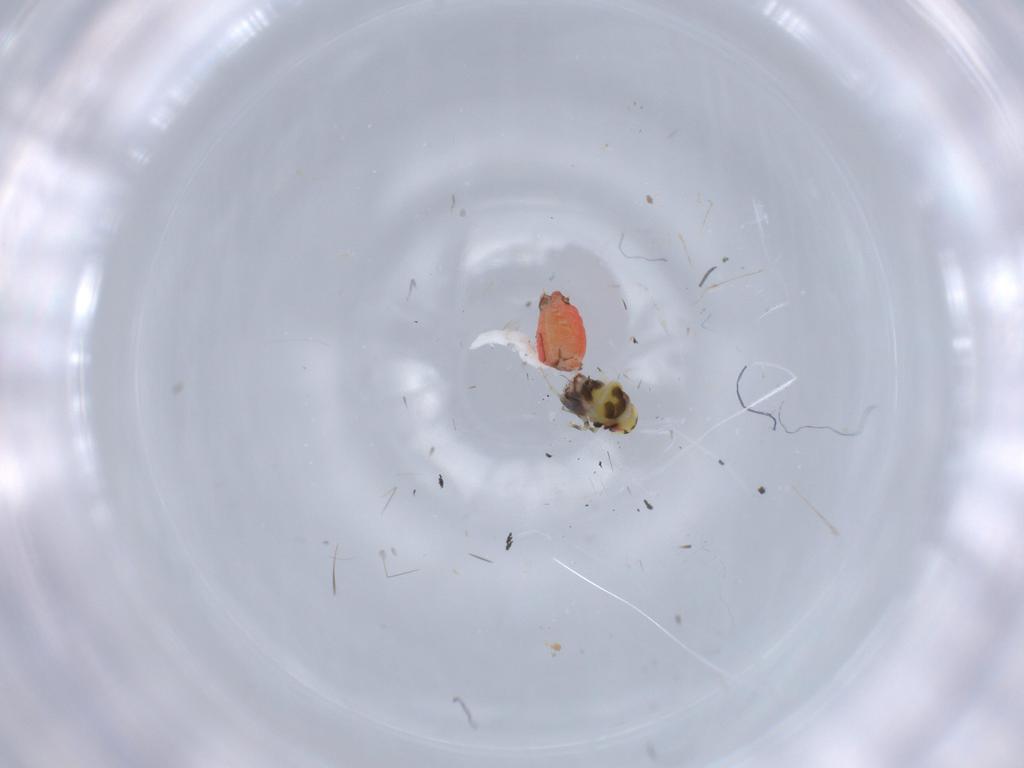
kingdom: Animalia
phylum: Arthropoda
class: Insecta
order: Hemiptera
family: Aleyrodidae
